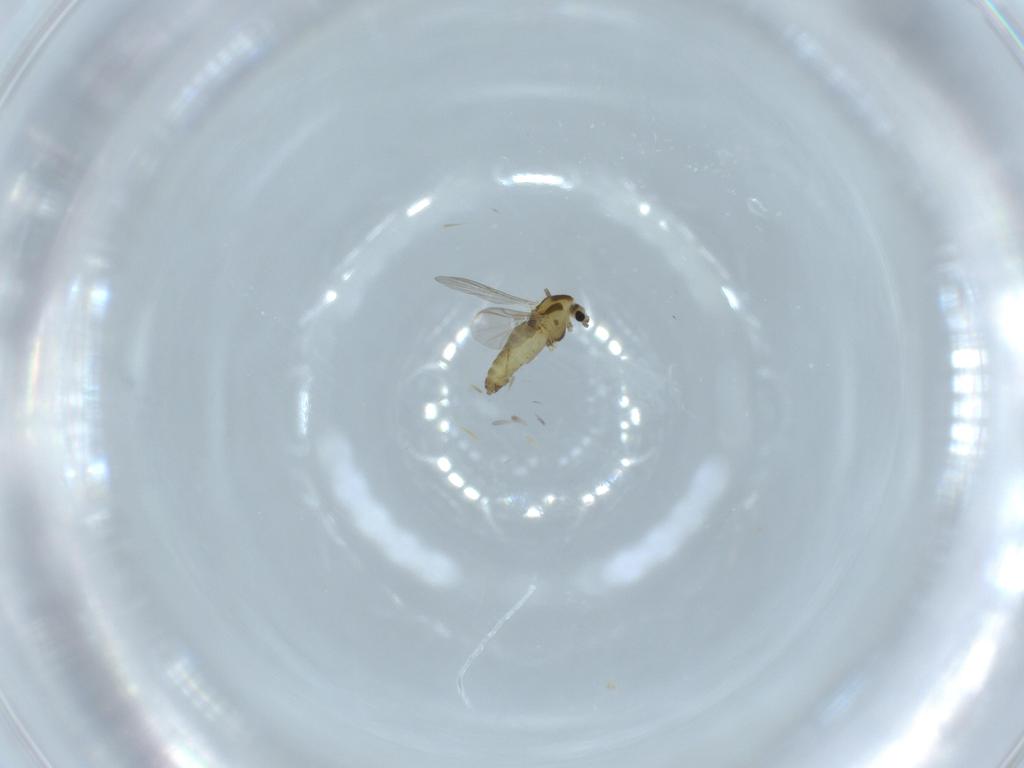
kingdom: Animalia
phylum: Arthropoda
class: Insecta
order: Diptera
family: Chironomidae
